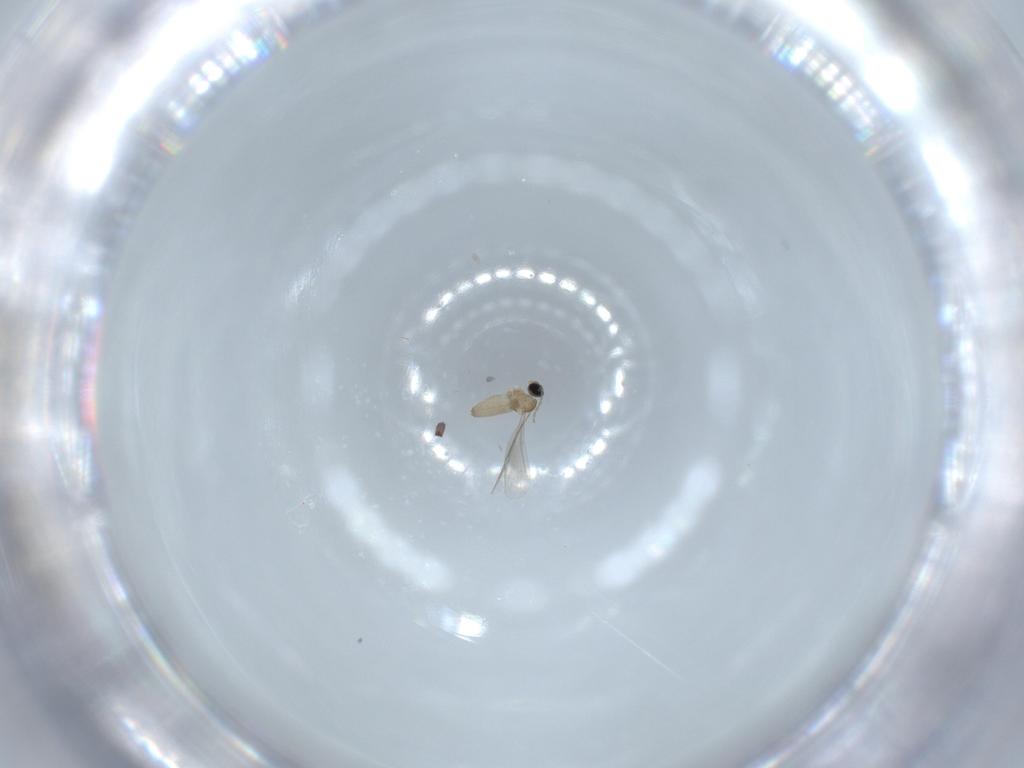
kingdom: Animalia
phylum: Arthropoda
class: Insecta
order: Diptera
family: Cecidomyiidae
